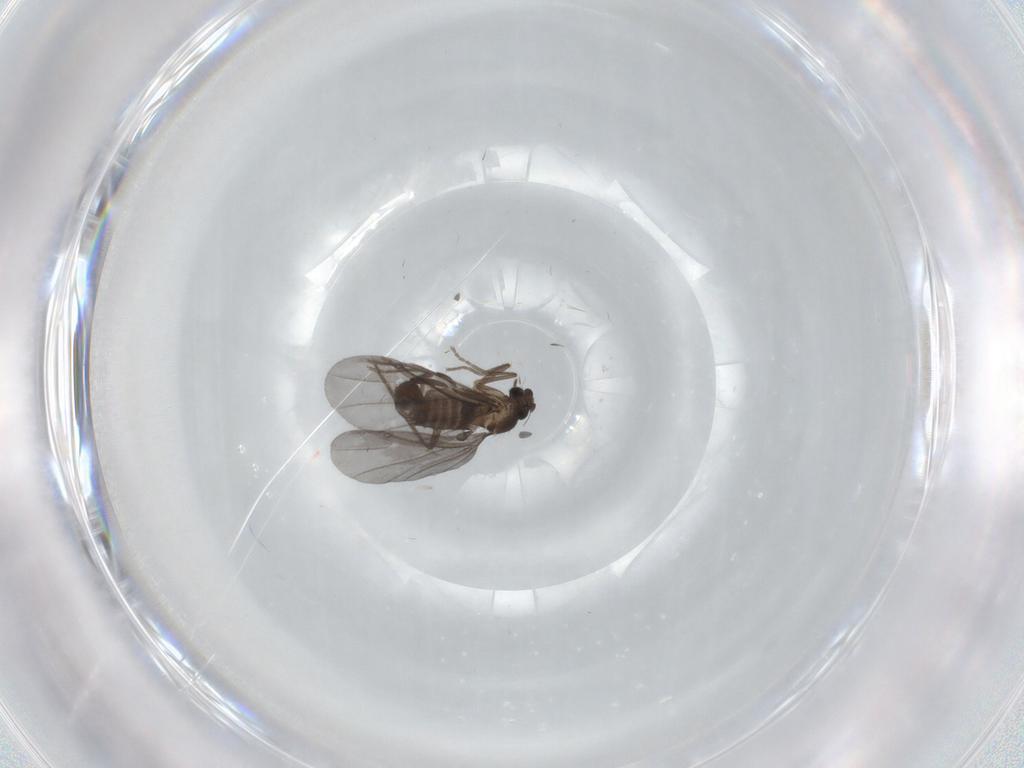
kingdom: Animalia
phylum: Arthropoda
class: Insecta
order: Diptera
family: Phoridae
